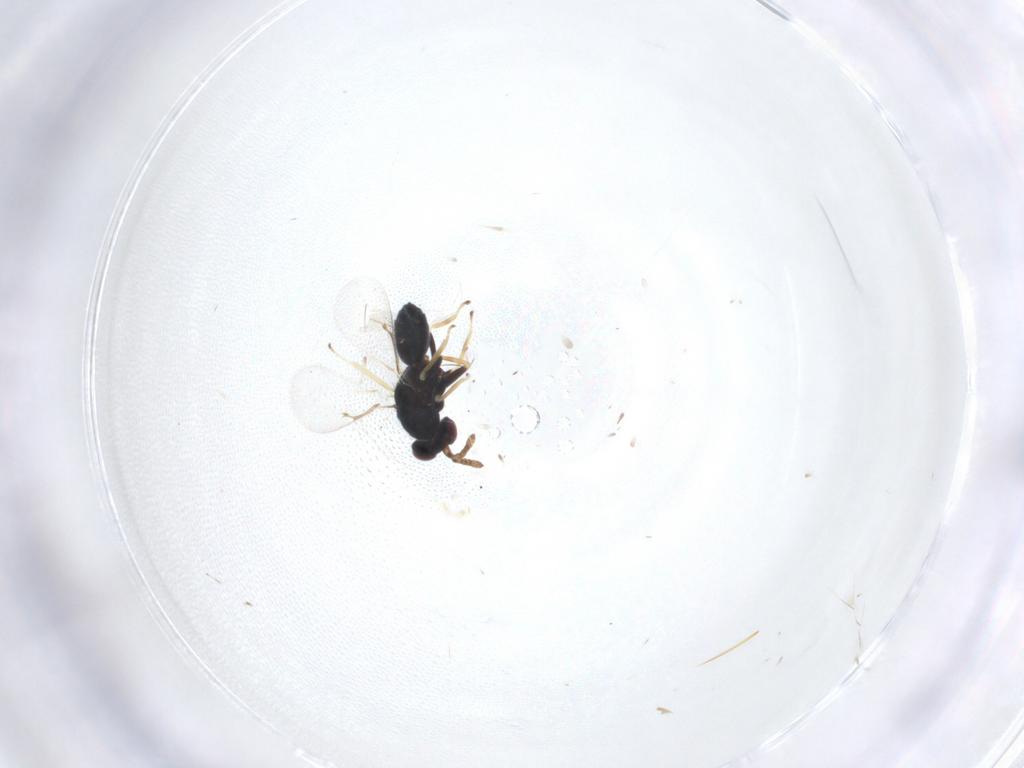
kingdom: Animalia
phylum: Arthropoda
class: Insecta
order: Hymenoptera
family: Eulophidae
